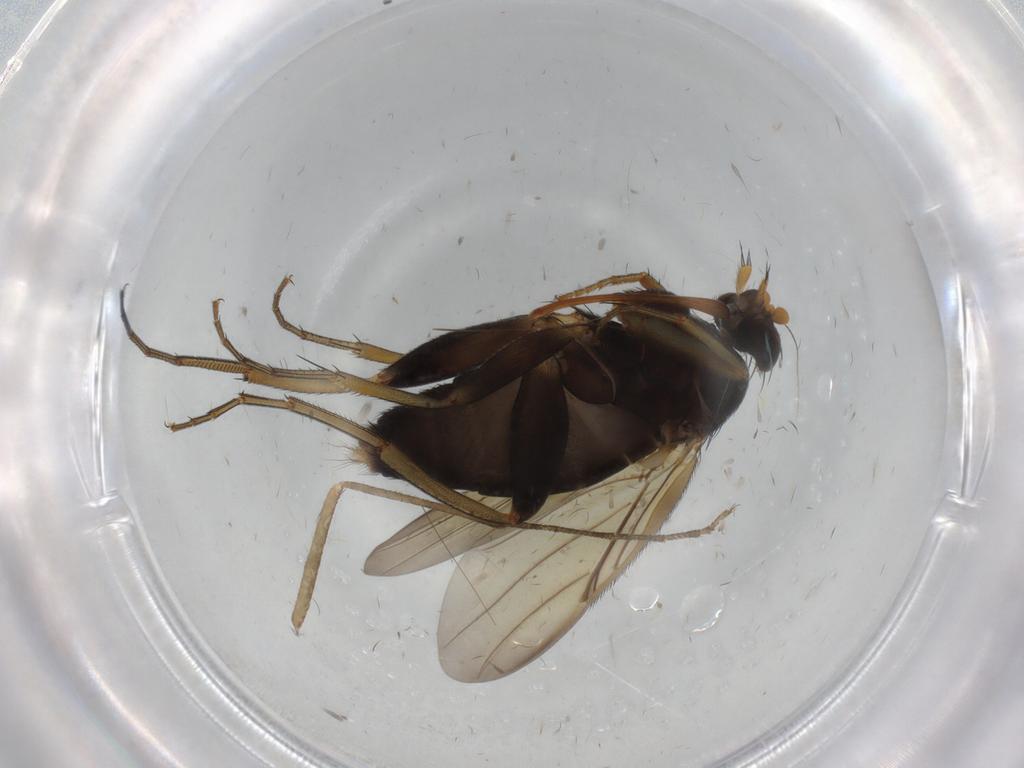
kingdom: Animalia
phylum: Arthropoda
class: Insecta
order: Diptera
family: Phoridae
